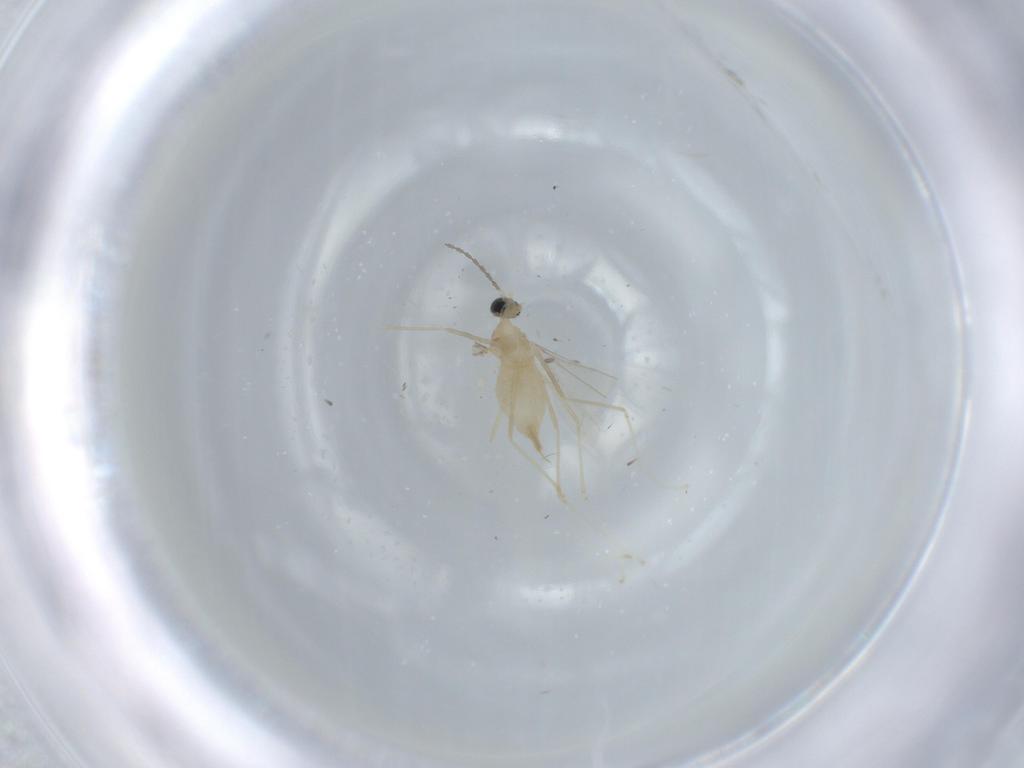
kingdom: Animalia
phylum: Arthropoda
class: Insecta
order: Diptera
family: Cecidomyiidae
